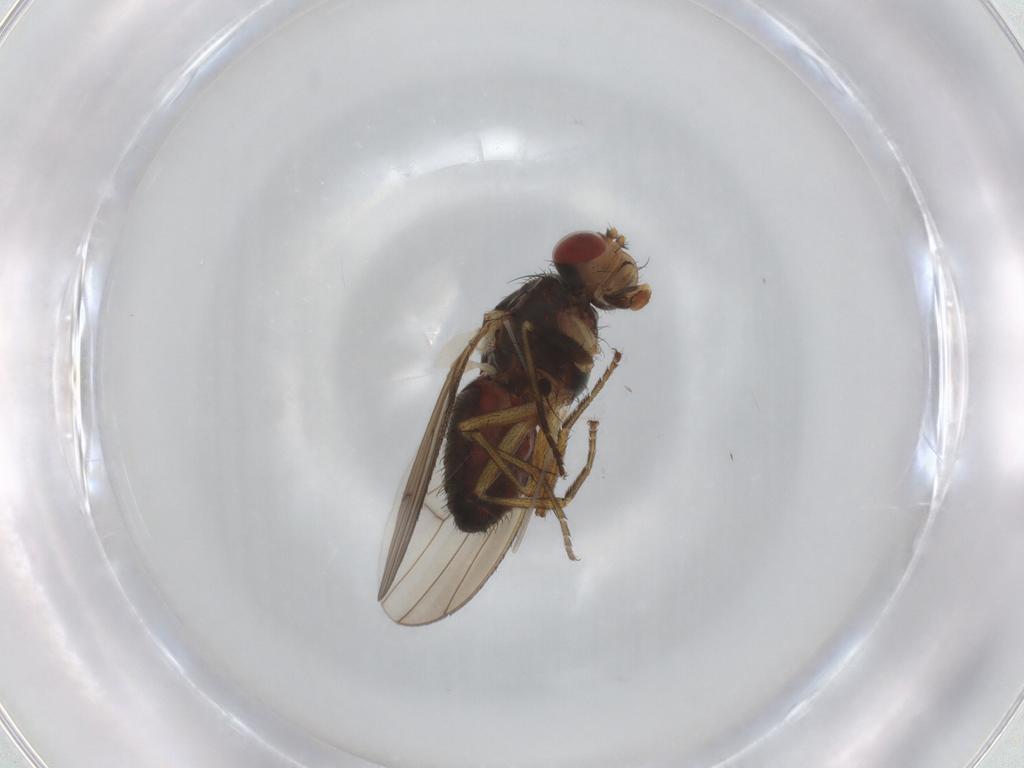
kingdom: Animalia
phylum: Arthropoda
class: Insecta
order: Diptera
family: Heleomyzidae
